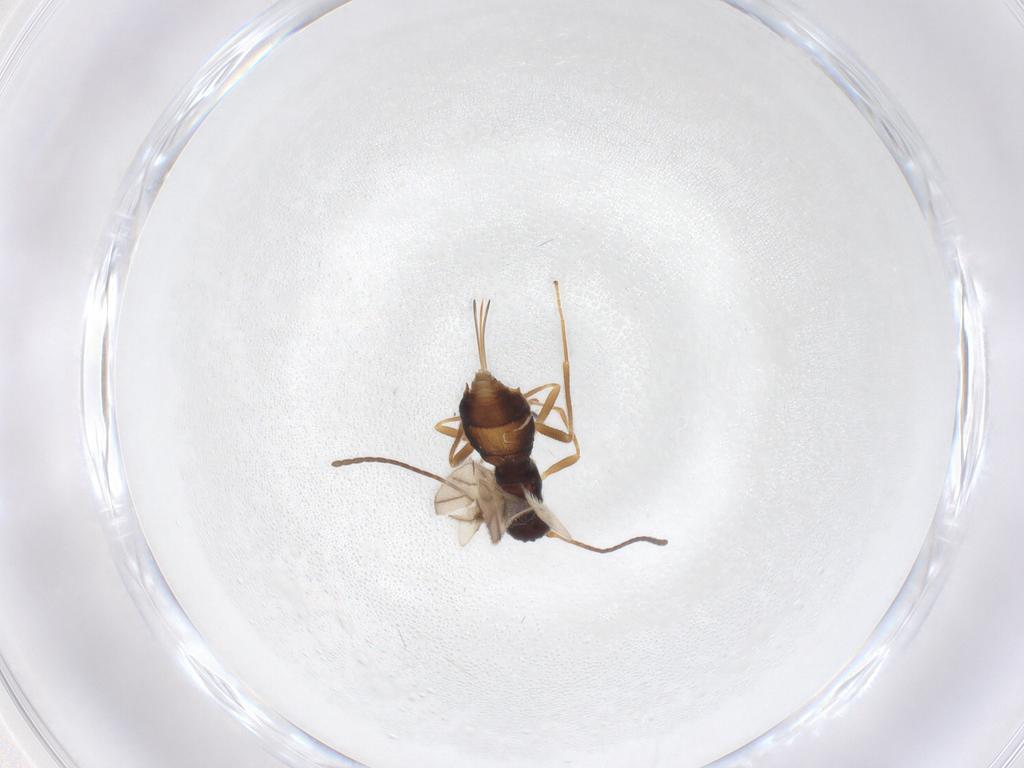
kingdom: Animalia
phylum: Arthropoda
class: Insecta
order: Hymenoptera
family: Braconidae
